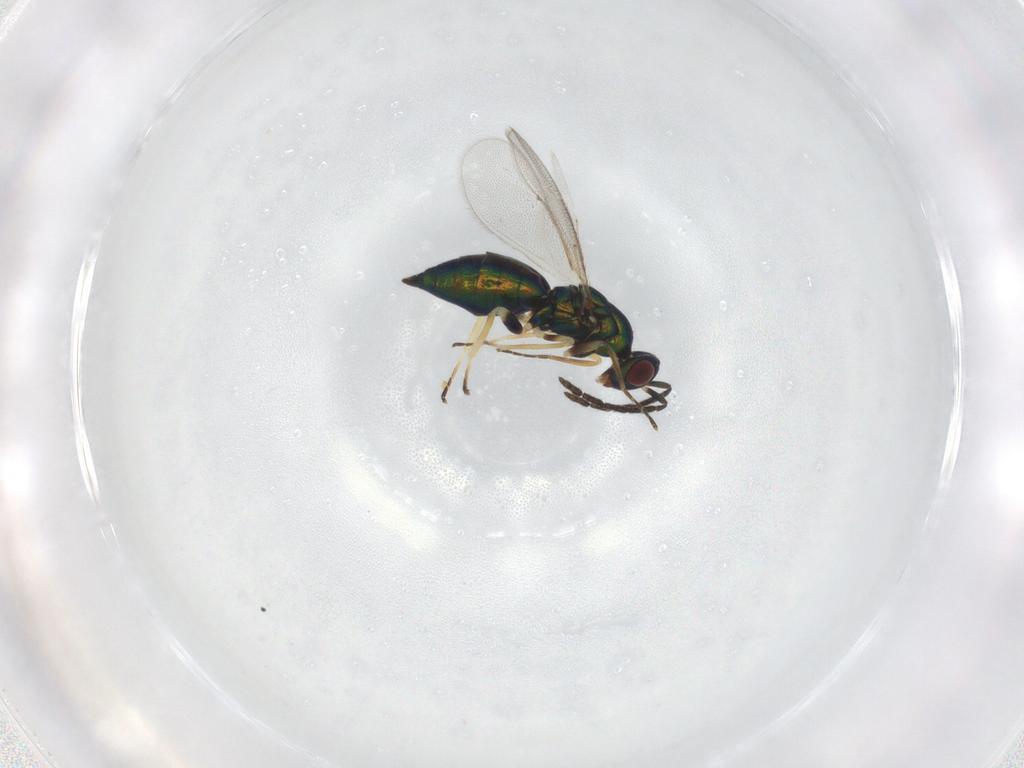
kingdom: Animalia
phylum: Arthropoda
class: Insecta
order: Hymenoptera
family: Eulophidae
